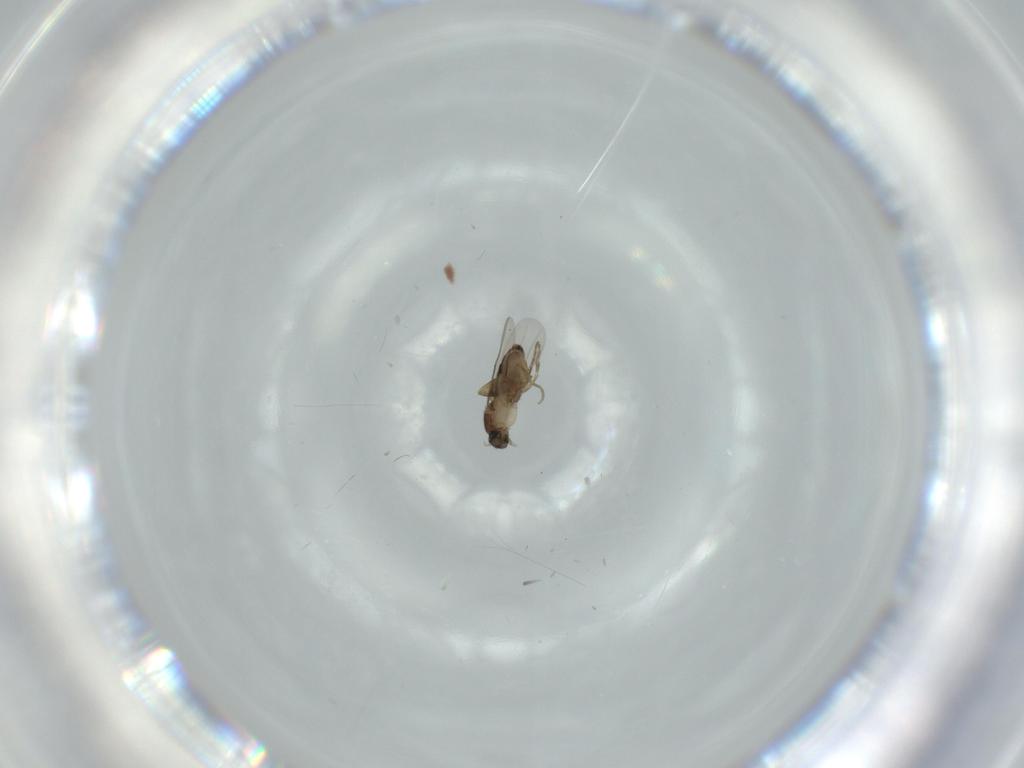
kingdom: Animalia
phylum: Arthropoda
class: Insecta
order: Diptera
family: Phoridae
